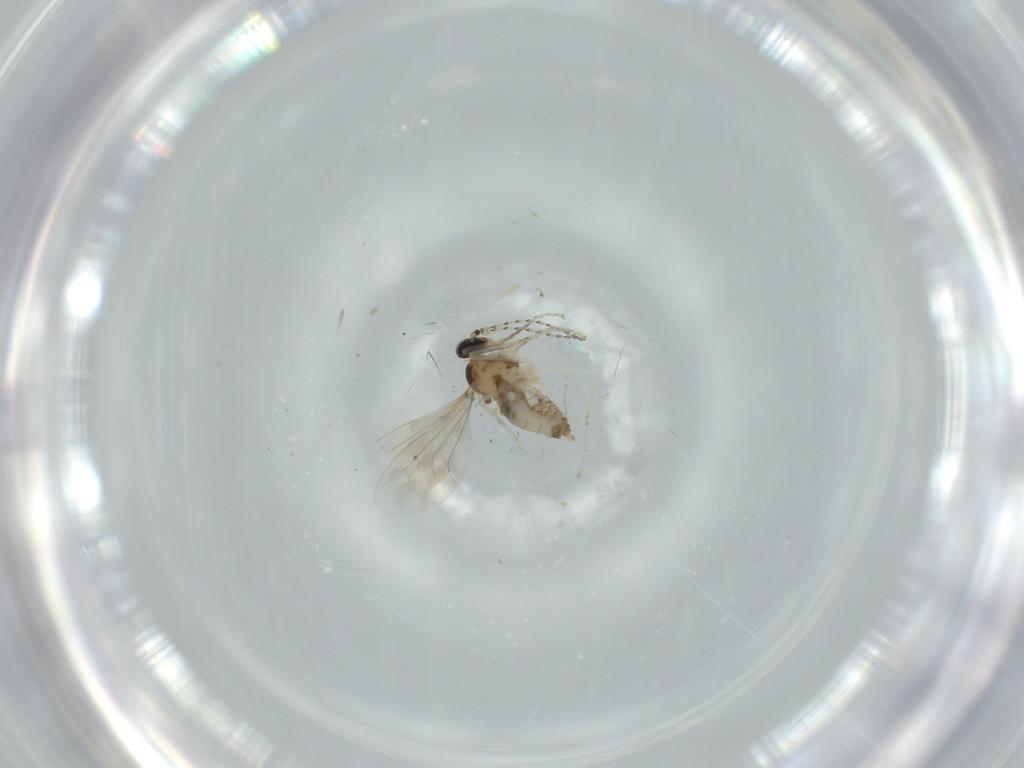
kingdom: Animalia
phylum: Arthropoda
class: Insecta
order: Diptera
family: Cecidomyiidae
